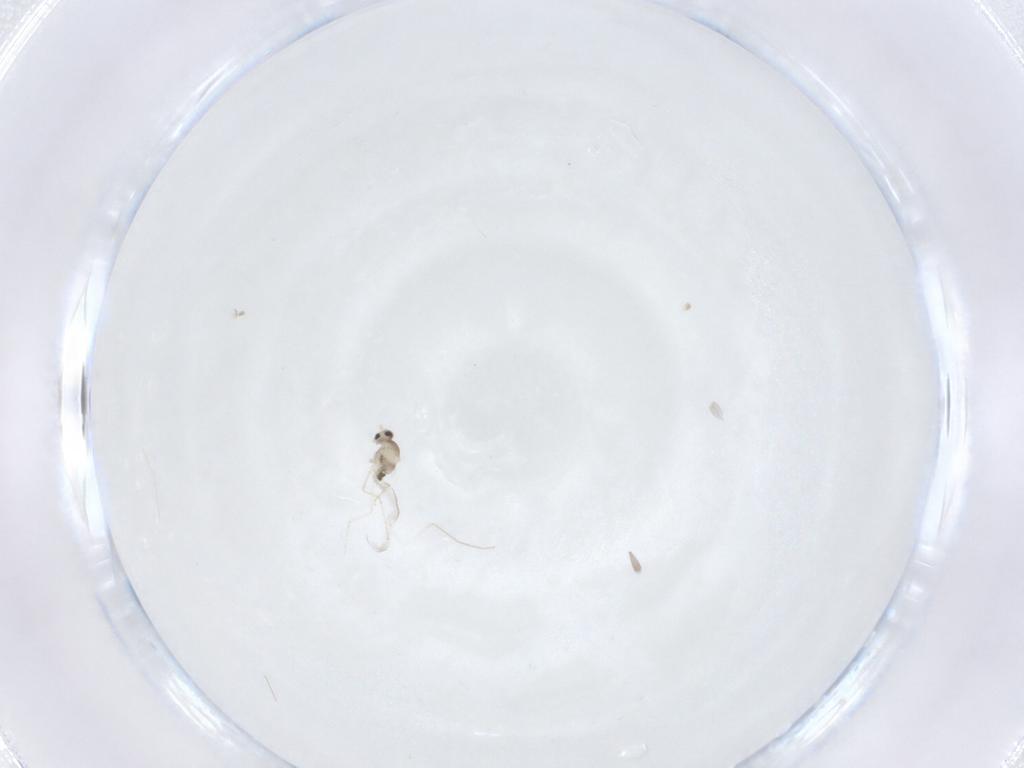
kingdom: Animalia
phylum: Arthropoda
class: Insecta
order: Diptera
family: Cecidomyiidae
